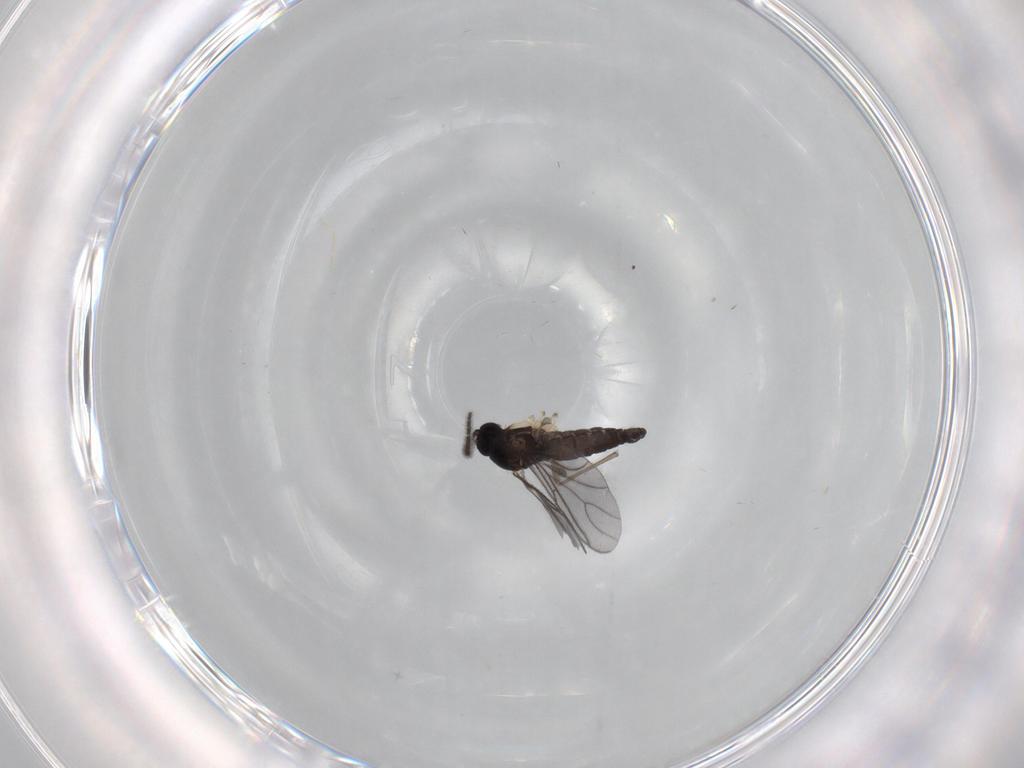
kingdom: Animalia
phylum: Arthropoda
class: Insecta
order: Diptera
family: Sciaridae
